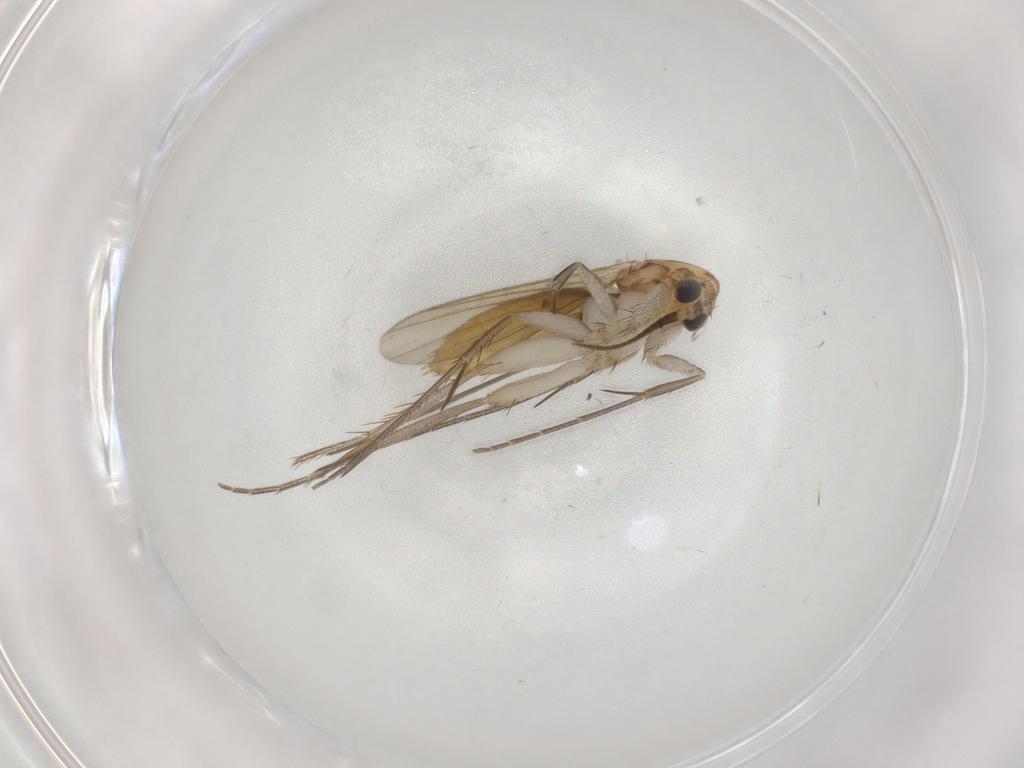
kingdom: Animalia
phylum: Arthropoda
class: Insecta
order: Diptera
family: Mycetophilidae
